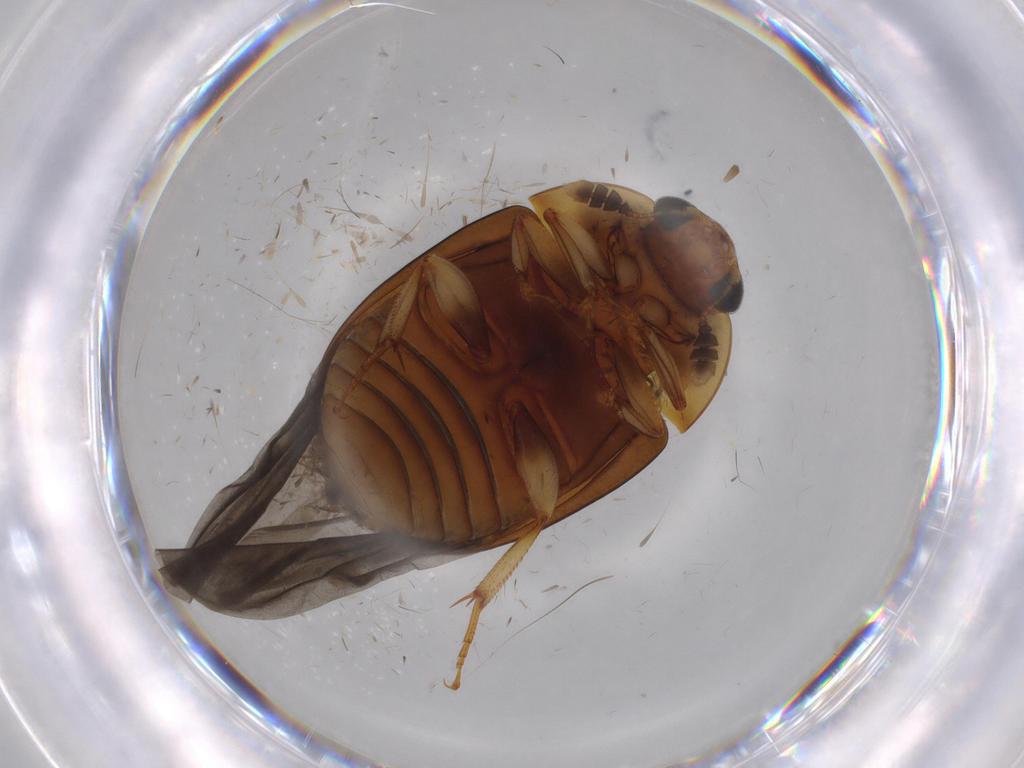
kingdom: Animalia
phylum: Arthropoda
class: Insecta
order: Coleoptera
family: Nitidulidae
